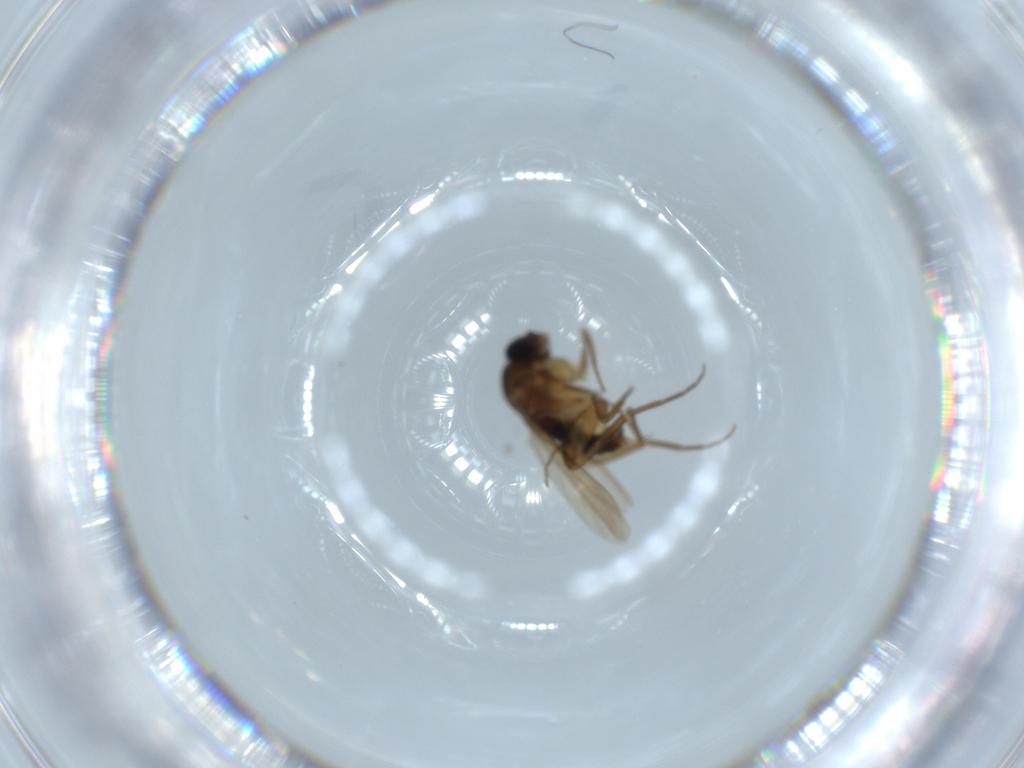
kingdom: Animalia
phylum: Arthropoda
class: Insecta
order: Diptera
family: Phoridae
